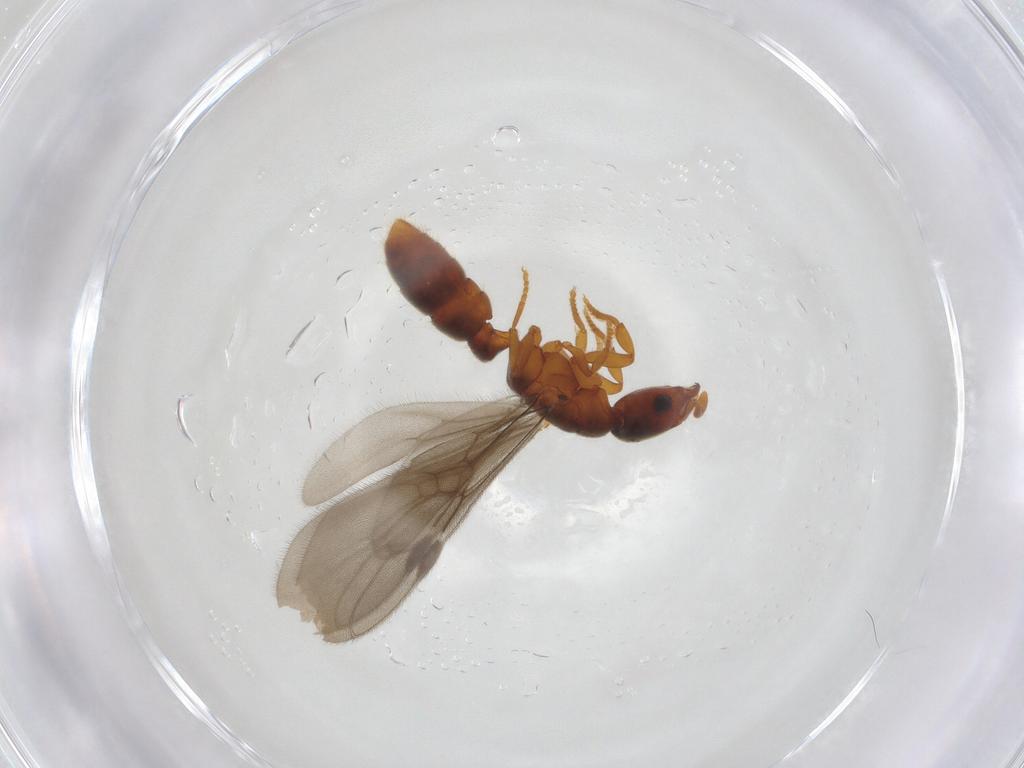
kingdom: Animalia
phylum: Arthropoda
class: Insecta
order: Hymenoptera
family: Formicidae
